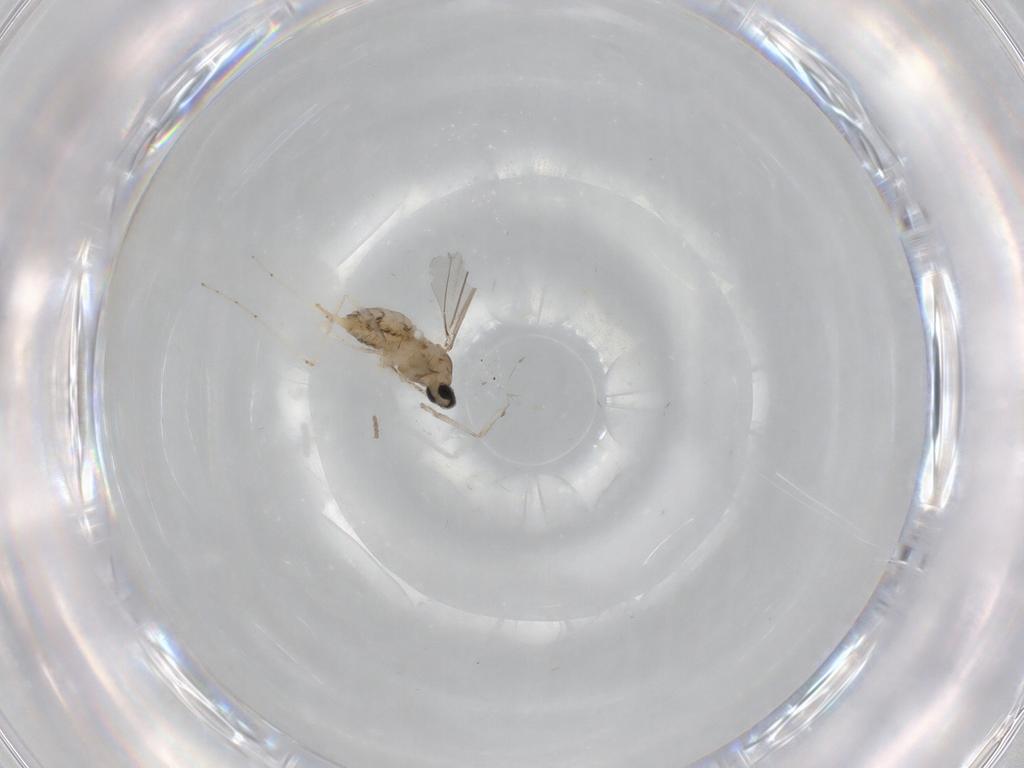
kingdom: Animalia
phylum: Arthropoda
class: Insecta
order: Diptera
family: Cecidomyiidae
